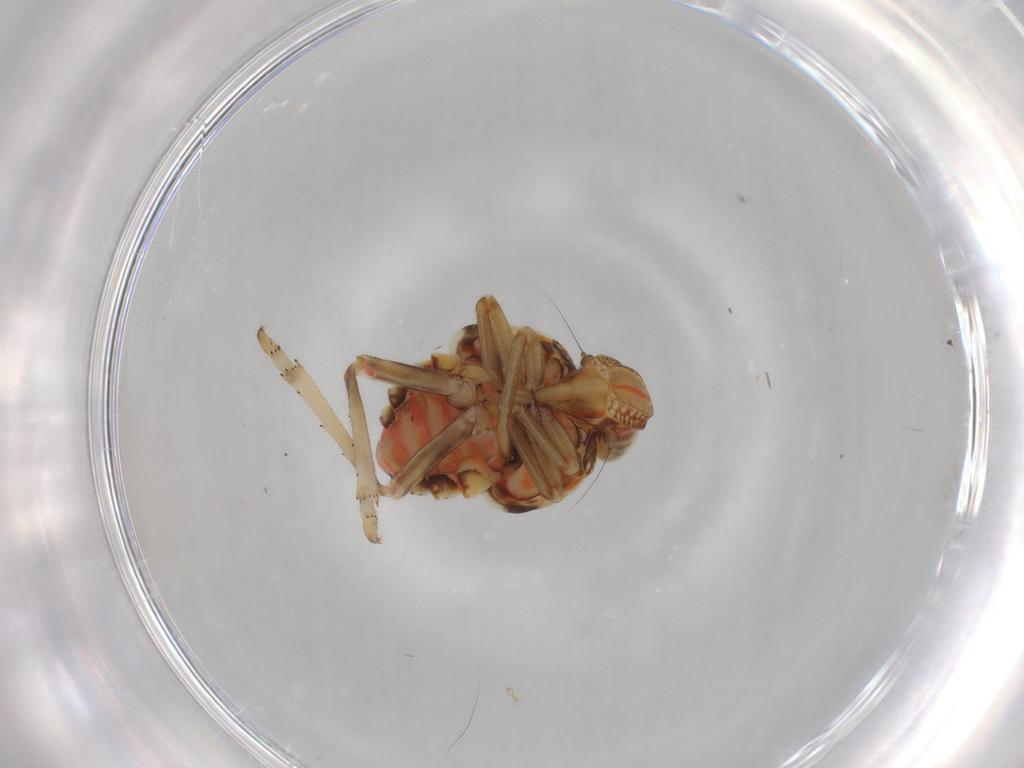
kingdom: Animalia
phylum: Arthropoda
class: Insecta
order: Hemiptera
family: Tropiduchidae
